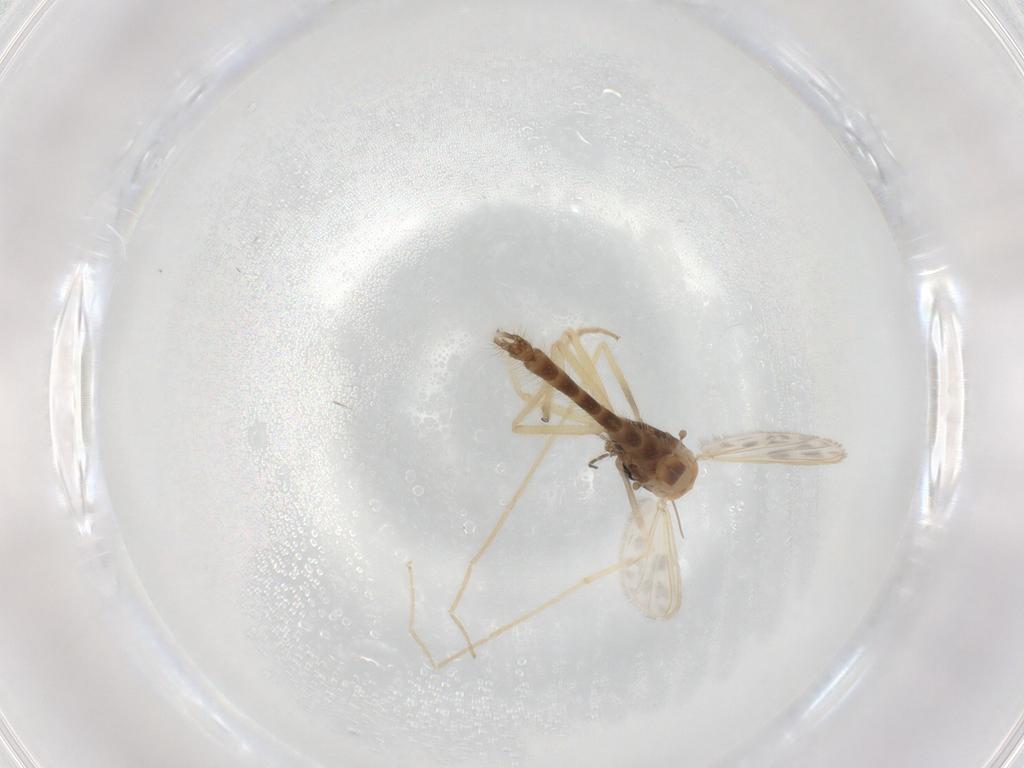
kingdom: Animalia
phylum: Arthropoda
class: Insecta
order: Diptera
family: Chironomidae
